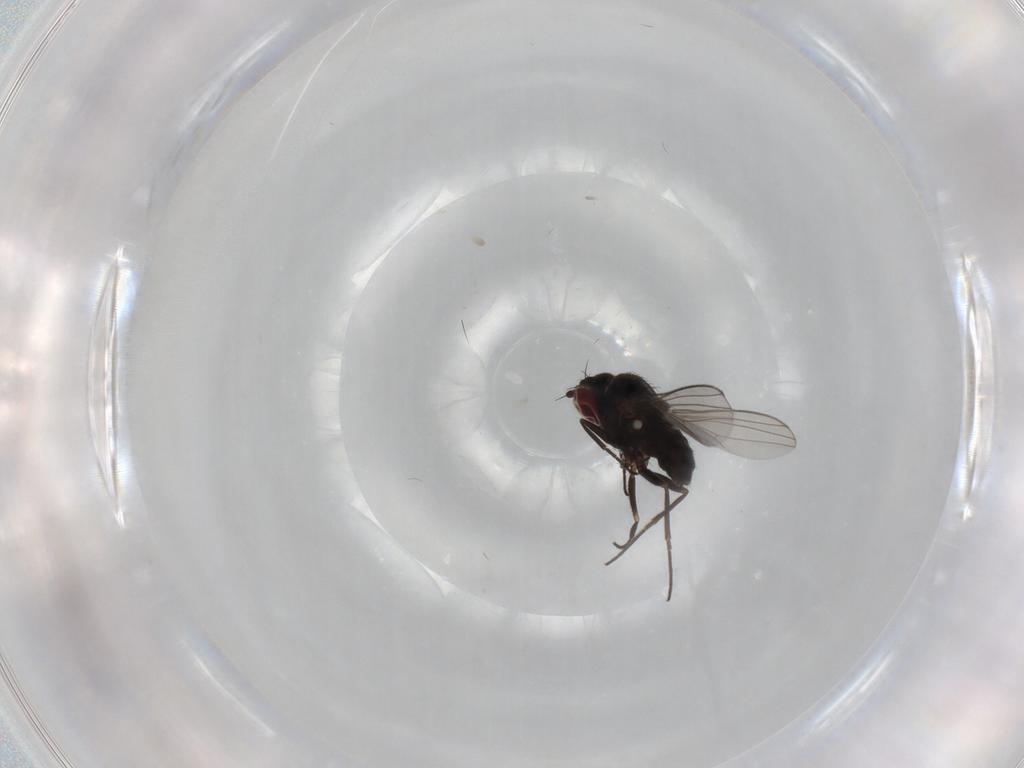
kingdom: Animalia
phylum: Arthropoda
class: Insecta
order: Diptera
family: Dolichopodidae
